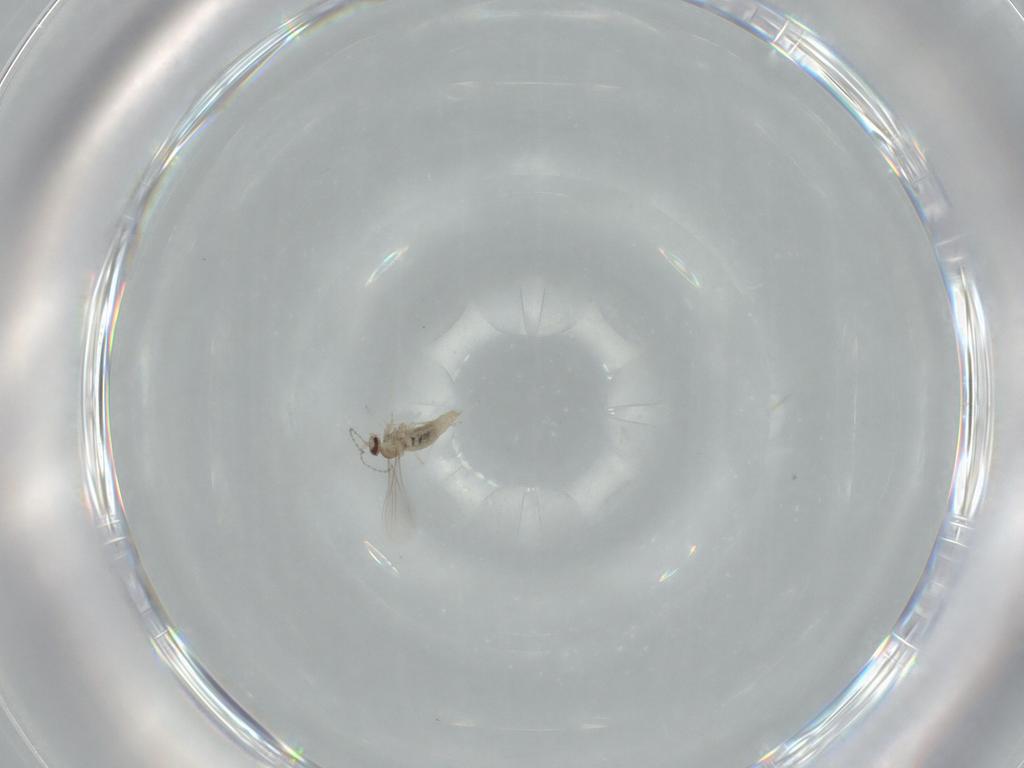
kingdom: Animalia
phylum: Arthropoda
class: Insecta
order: Diptera
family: Cecidomyiidae
